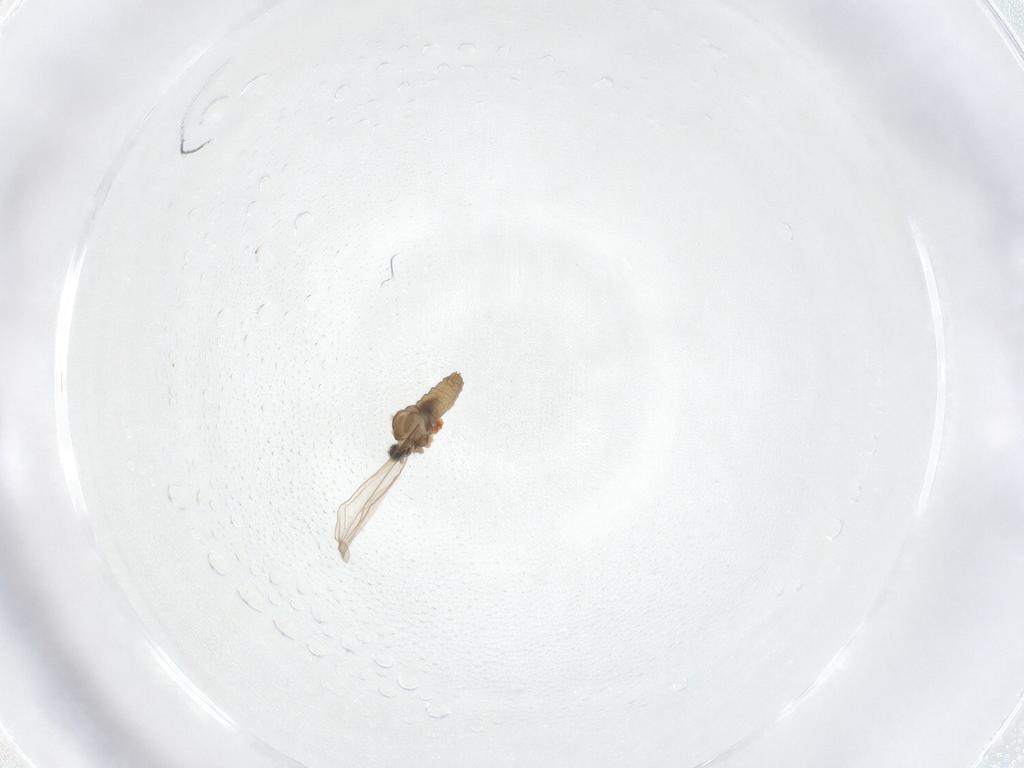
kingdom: Animalia
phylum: Arthropoda
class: Insecta
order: Diptera
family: Cecidomyiidae
